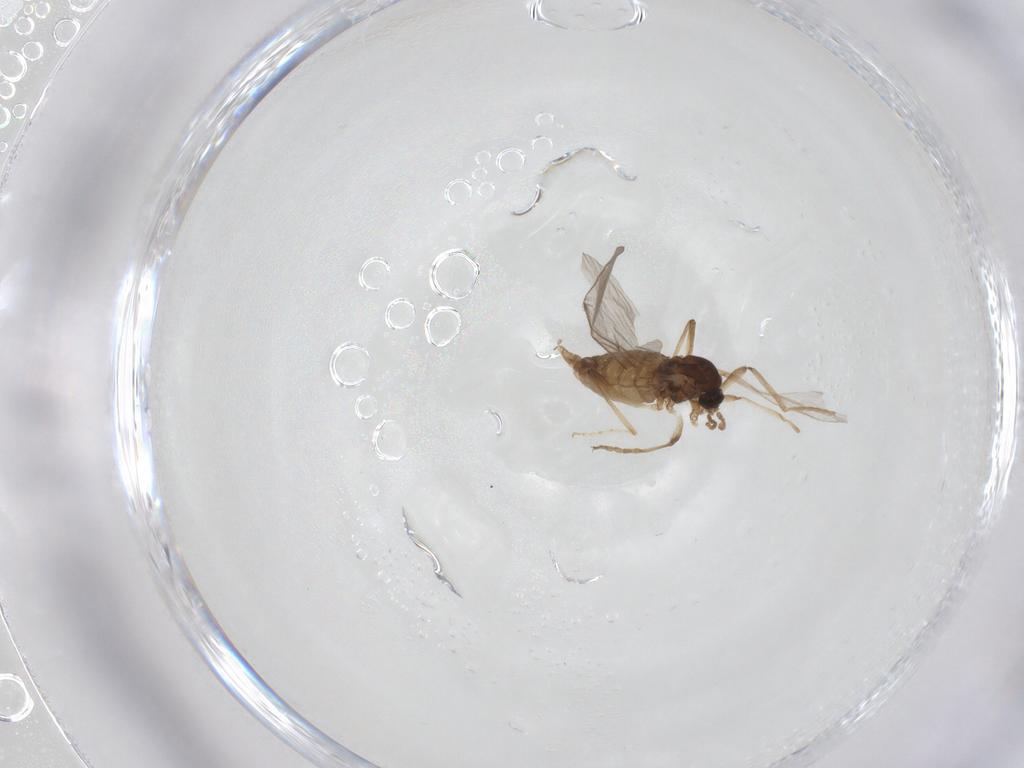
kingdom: Animalia
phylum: Arthropoda
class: Insecta
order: Diptera
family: Cecidomyiidae
